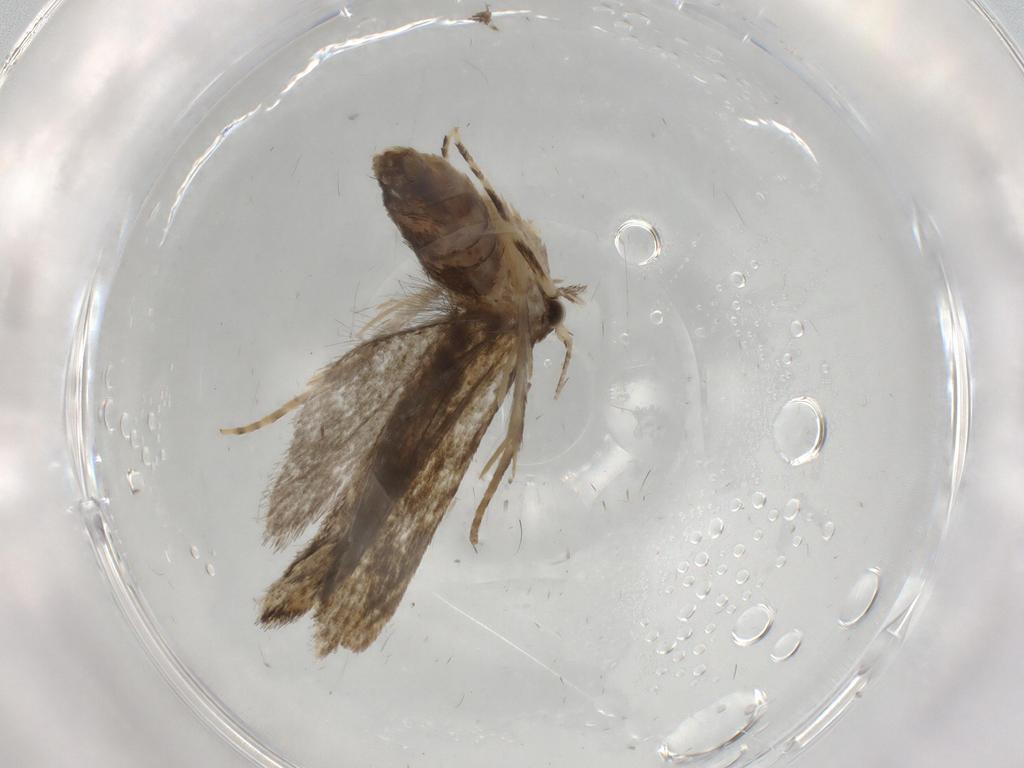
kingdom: Animalia
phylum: Arthropoda
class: Insecta
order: Lepidoptera
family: Tineidae
